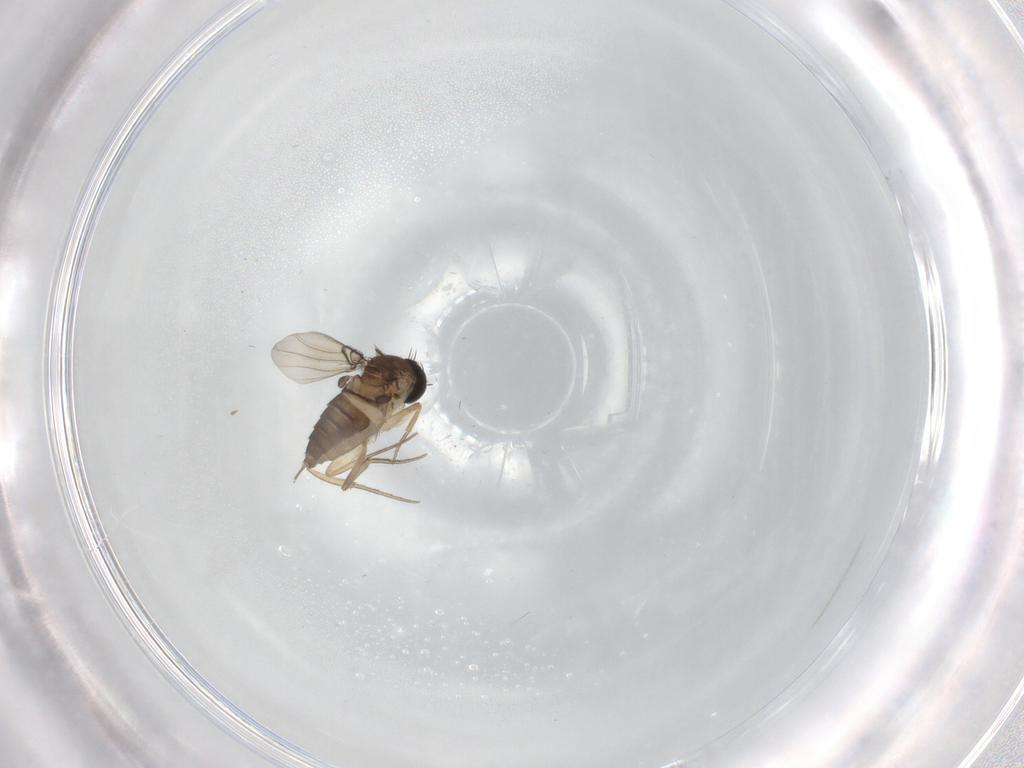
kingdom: Animalia
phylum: Arthropoda
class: Insecta
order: Diptera
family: Phoridae
